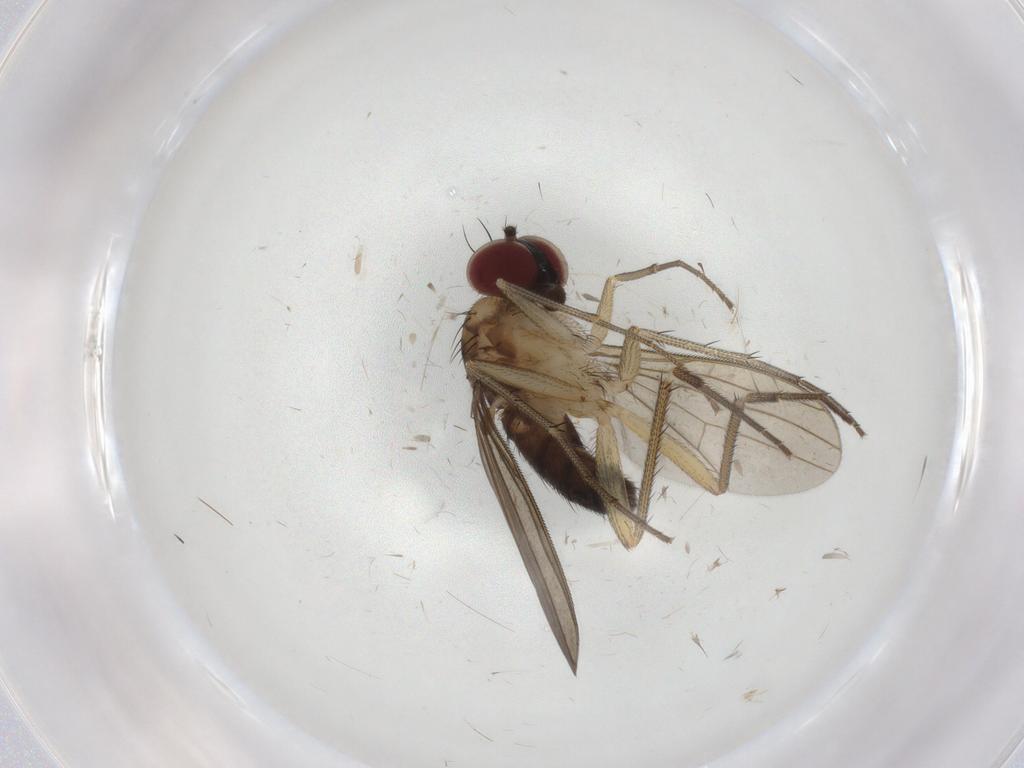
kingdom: Animalia
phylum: Arthropoda
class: Insecta
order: Diptera
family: Dolichopodidae
